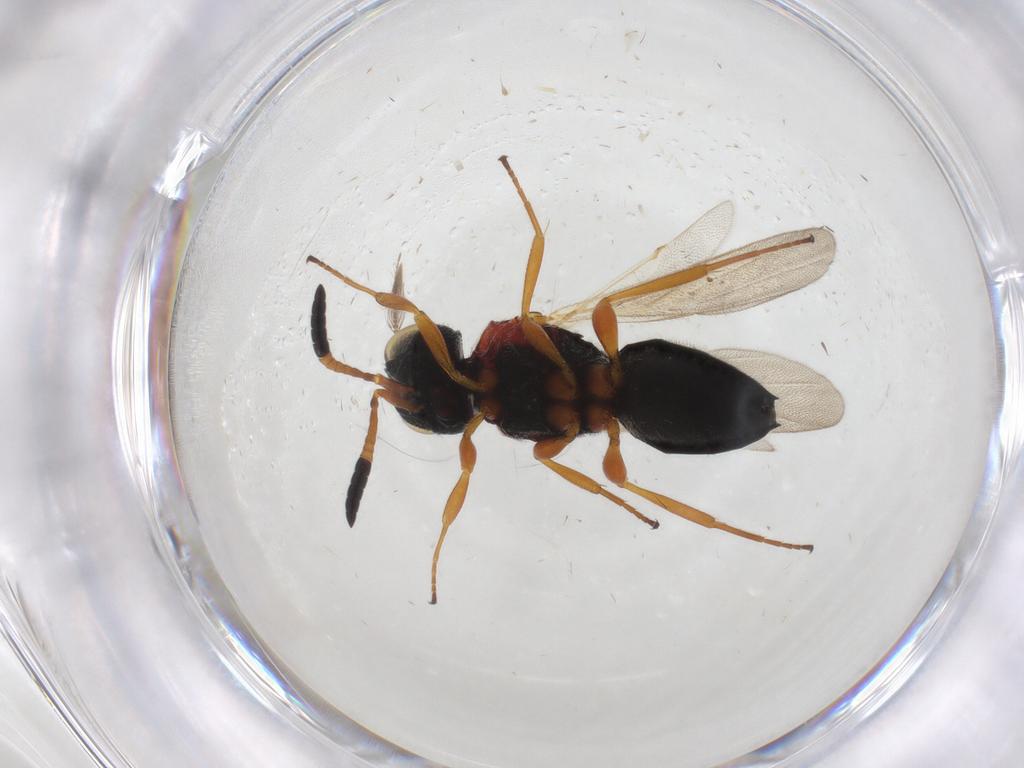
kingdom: Animalia
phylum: Arthropoda
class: Insecta
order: Hymenoptera
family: Scelionidae
